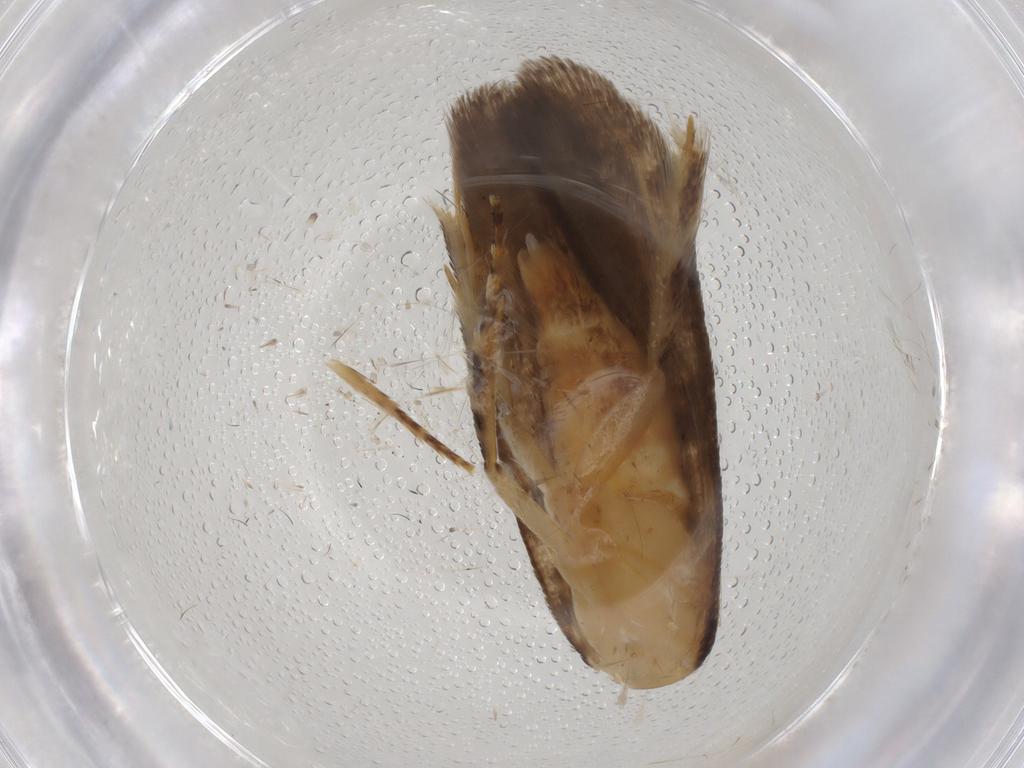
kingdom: Animalia
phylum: Arthropoda
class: Insecta
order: Lepidoptera
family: Gelechiidae
